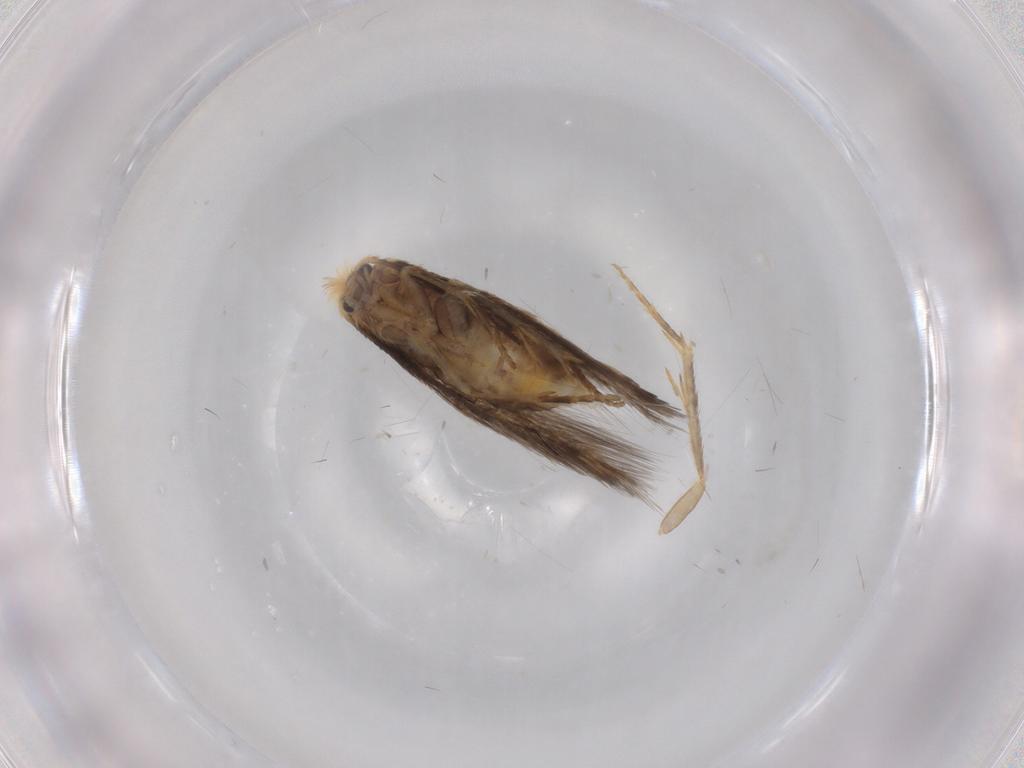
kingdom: Animalia
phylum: Arthropoda
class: Insecta
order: Lepidoptera
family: Nepticulidae
